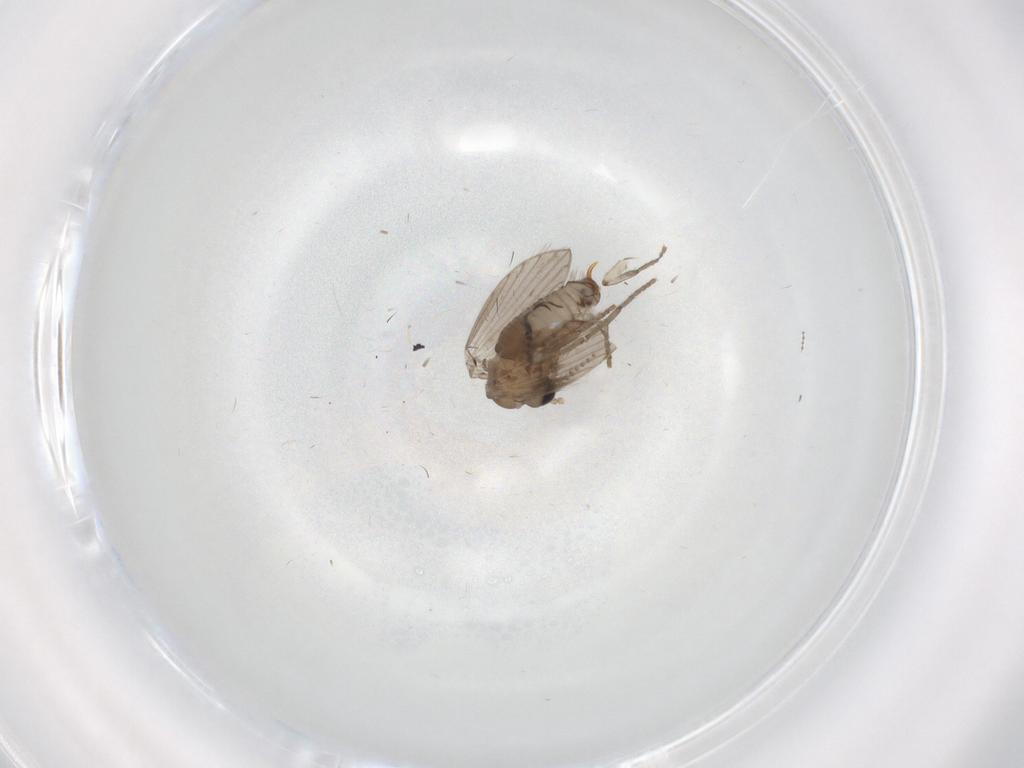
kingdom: Animalia
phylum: Arthropoda
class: Insecta
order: Diptera
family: Psychodidae
